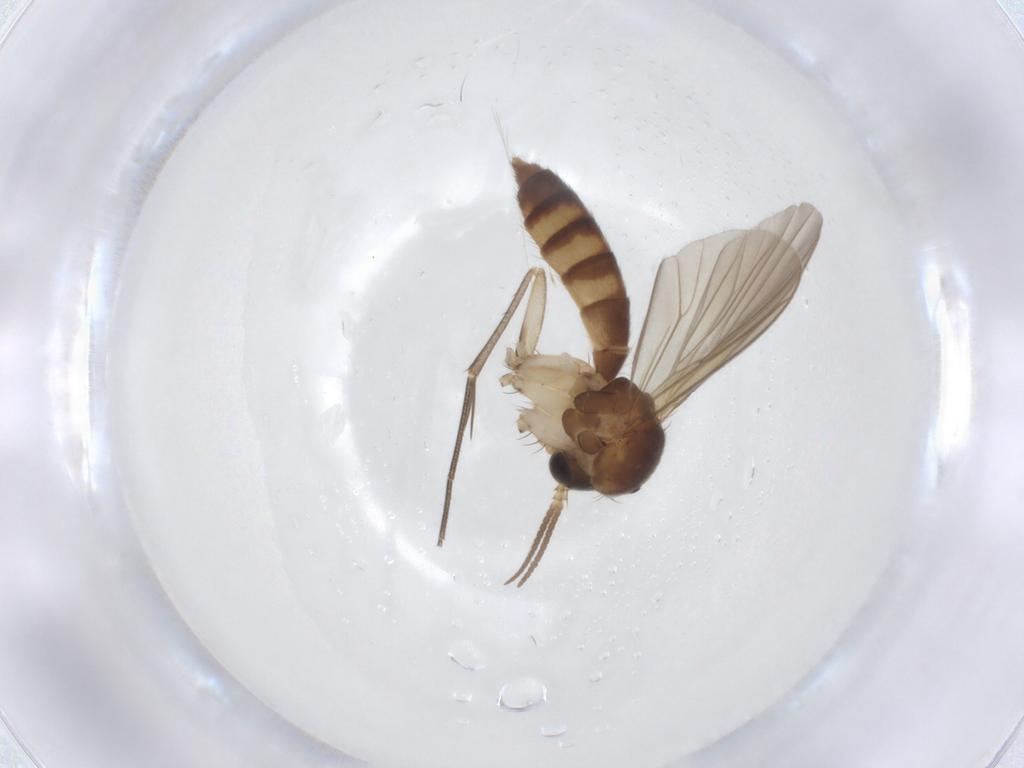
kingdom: Animalia
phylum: Arthropoda
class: Insecta
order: Diptera
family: Mycetophilidae
